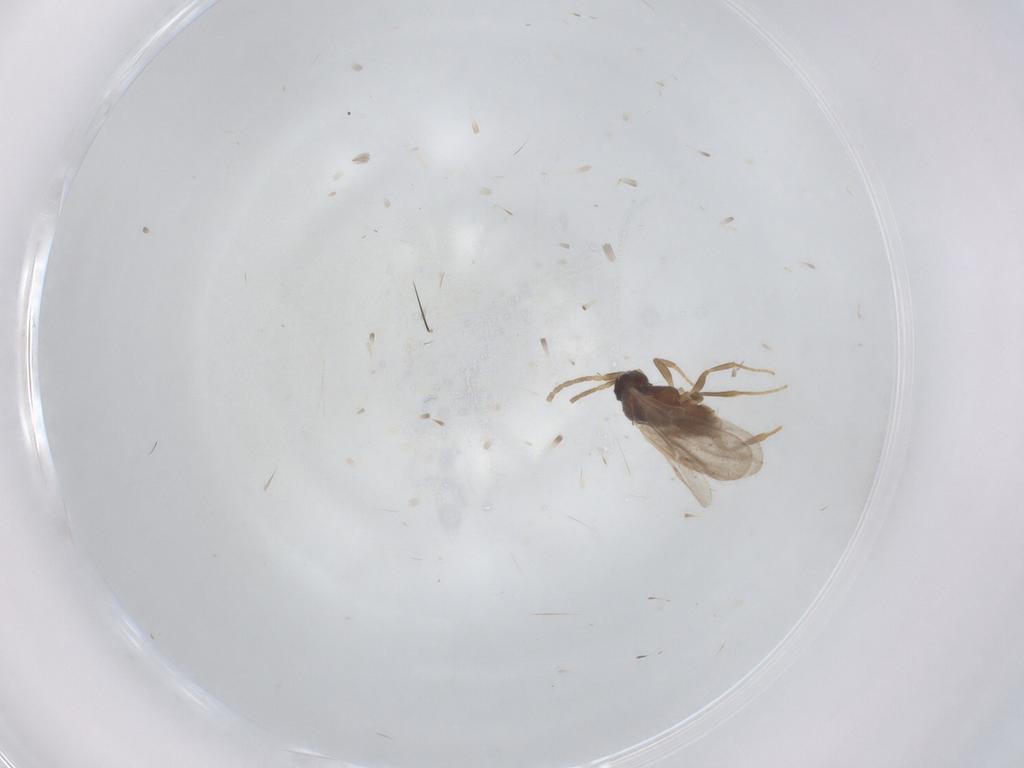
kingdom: Animalia
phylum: Arthropoda
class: Insecta
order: Hymenoptera
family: Dryinidae
